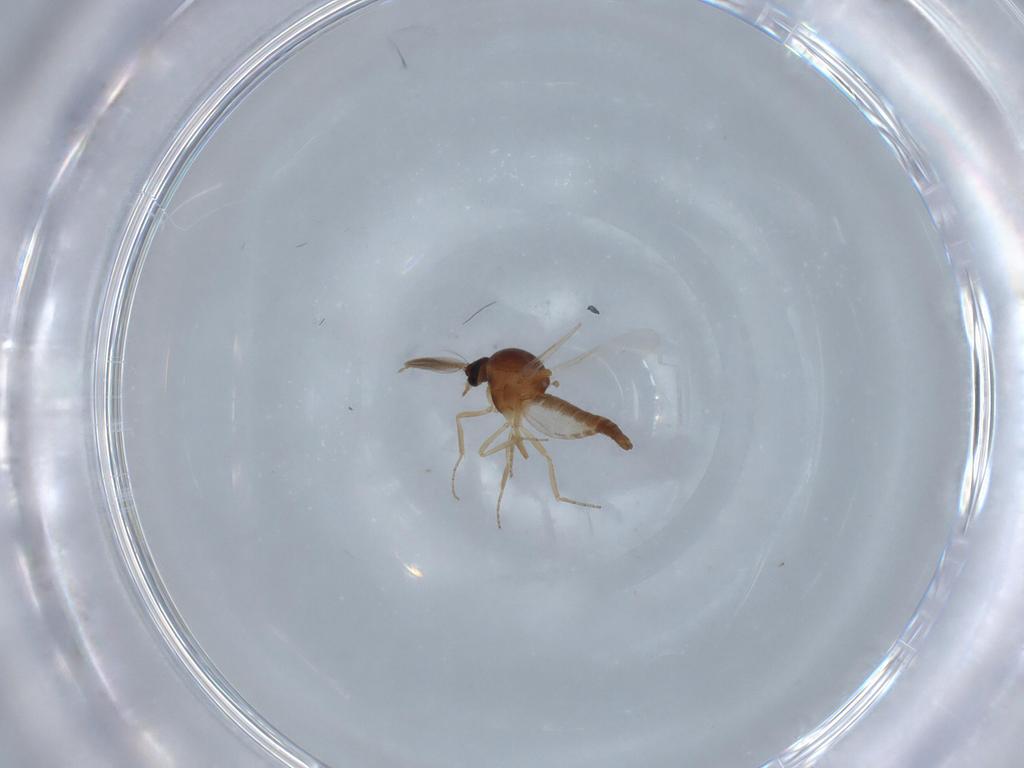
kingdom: Animalia
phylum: Arthropoda
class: Insecta
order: Diptera
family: Ceratopogonidae
